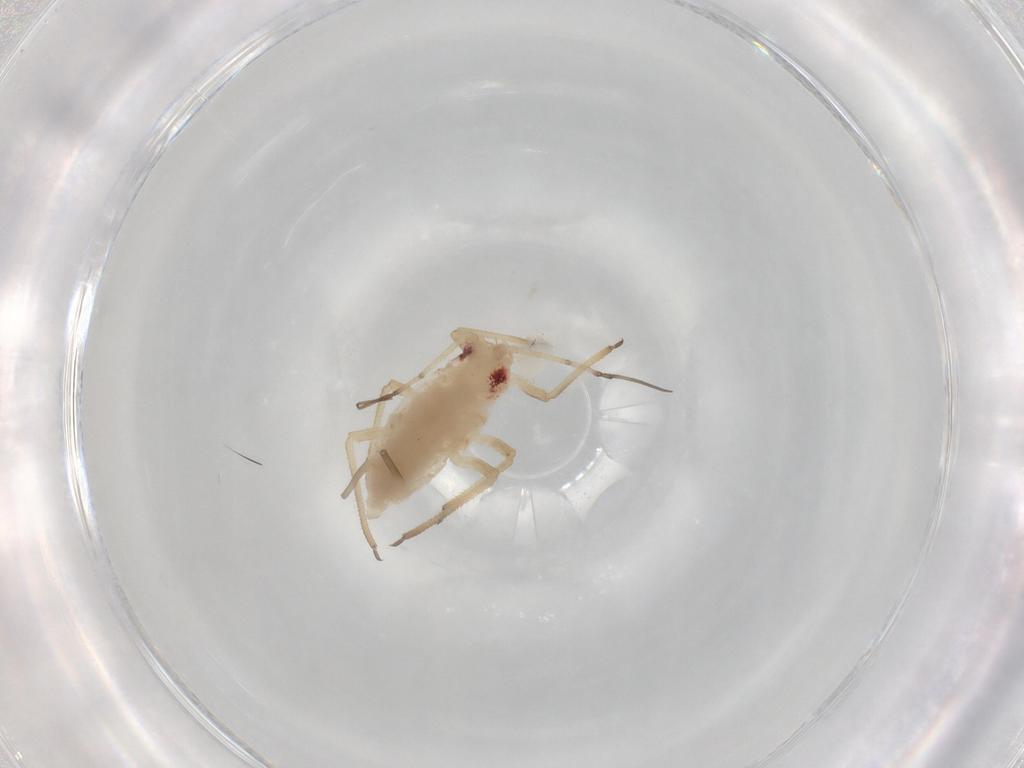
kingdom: Animalia
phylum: Arthropoda
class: Insecta
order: Hemiptera
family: Aphididae
